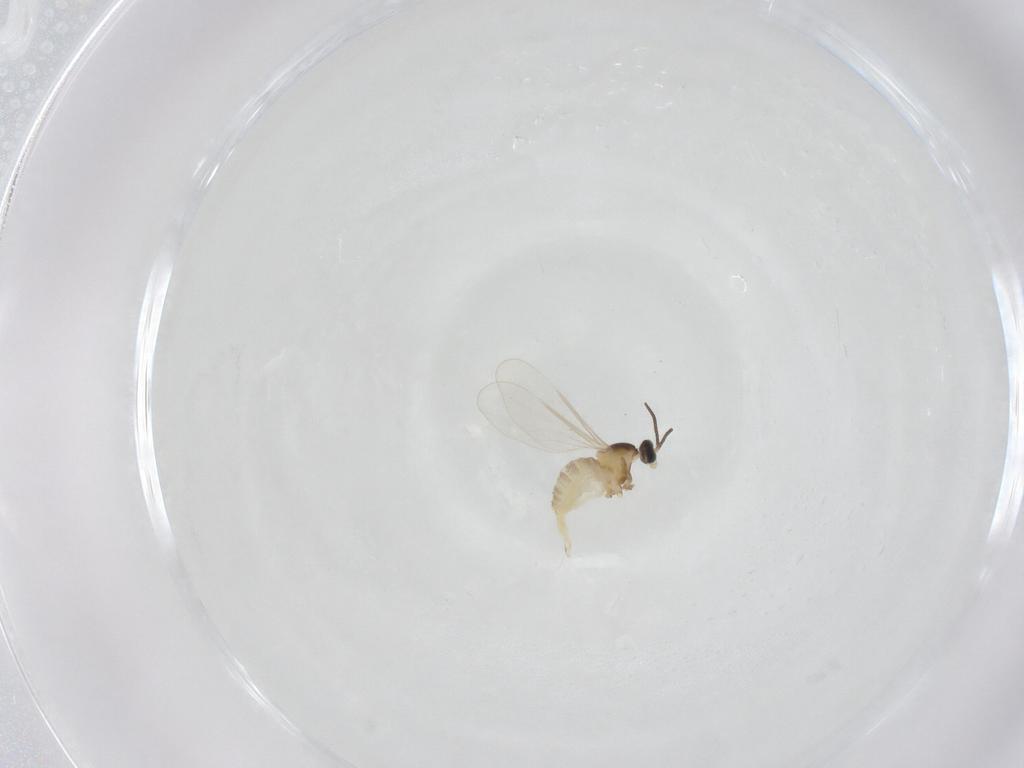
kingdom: Animalia
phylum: Arthropoda
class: Insecta
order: Diptera
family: Cecidomyiidae
